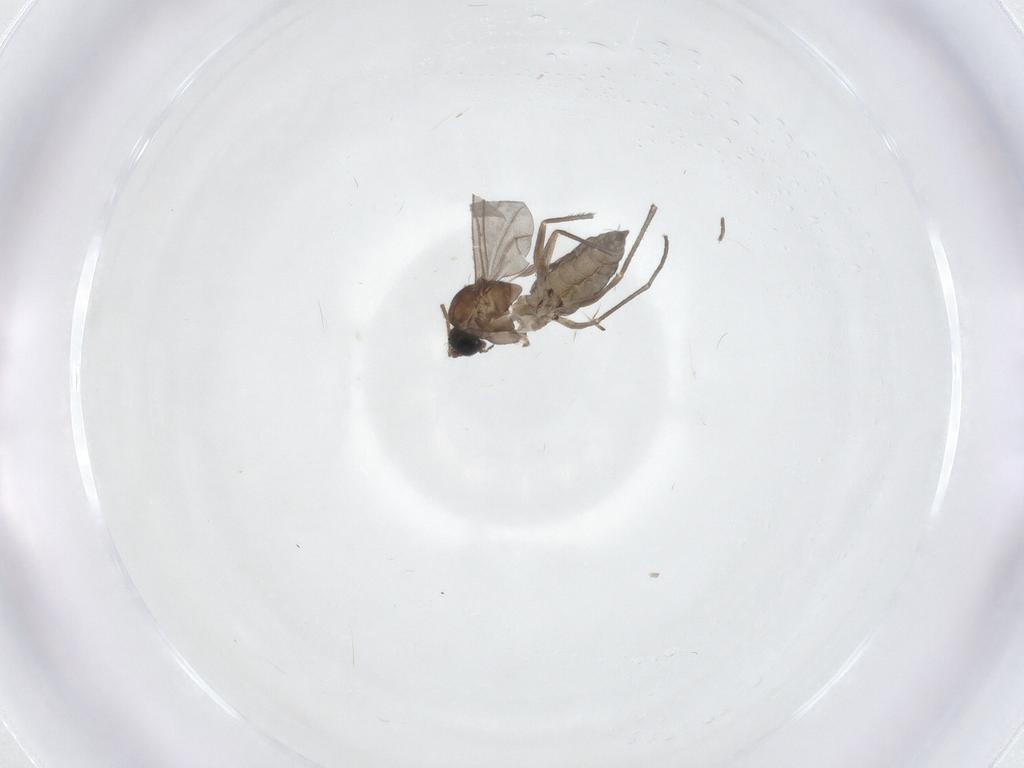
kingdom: Animalia
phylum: Arthropoda
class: Insecta
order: Diptera
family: Sciaridae
